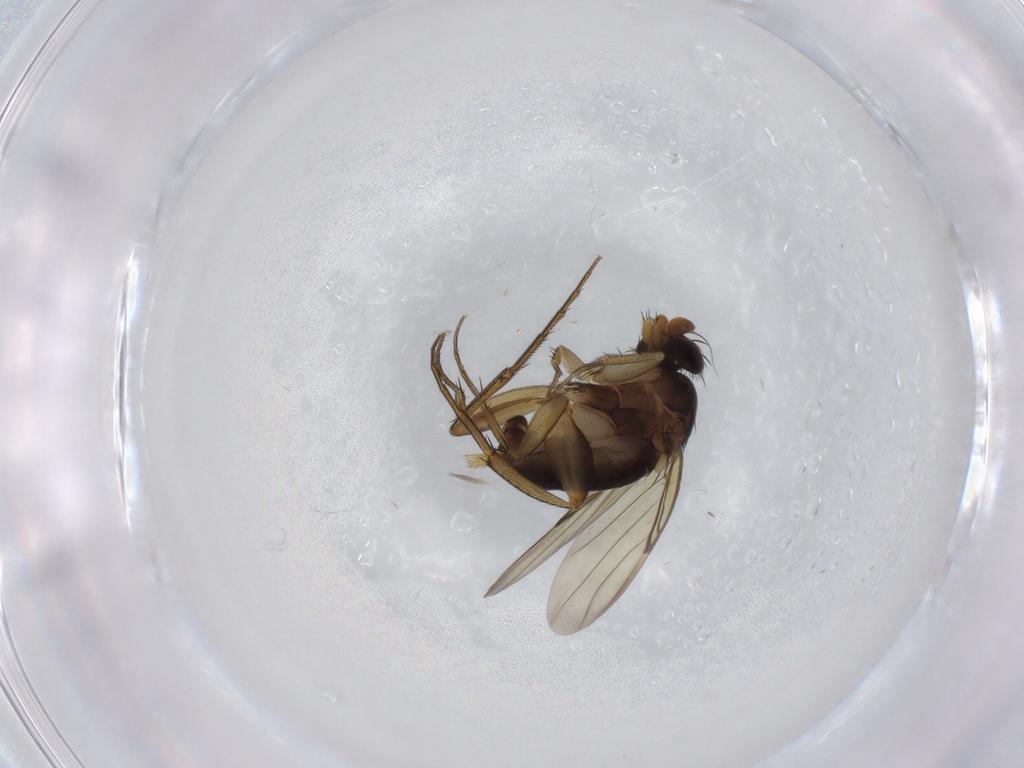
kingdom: Animalia
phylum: Arthropoda
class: Insecta
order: Diptera
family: Phoridae
